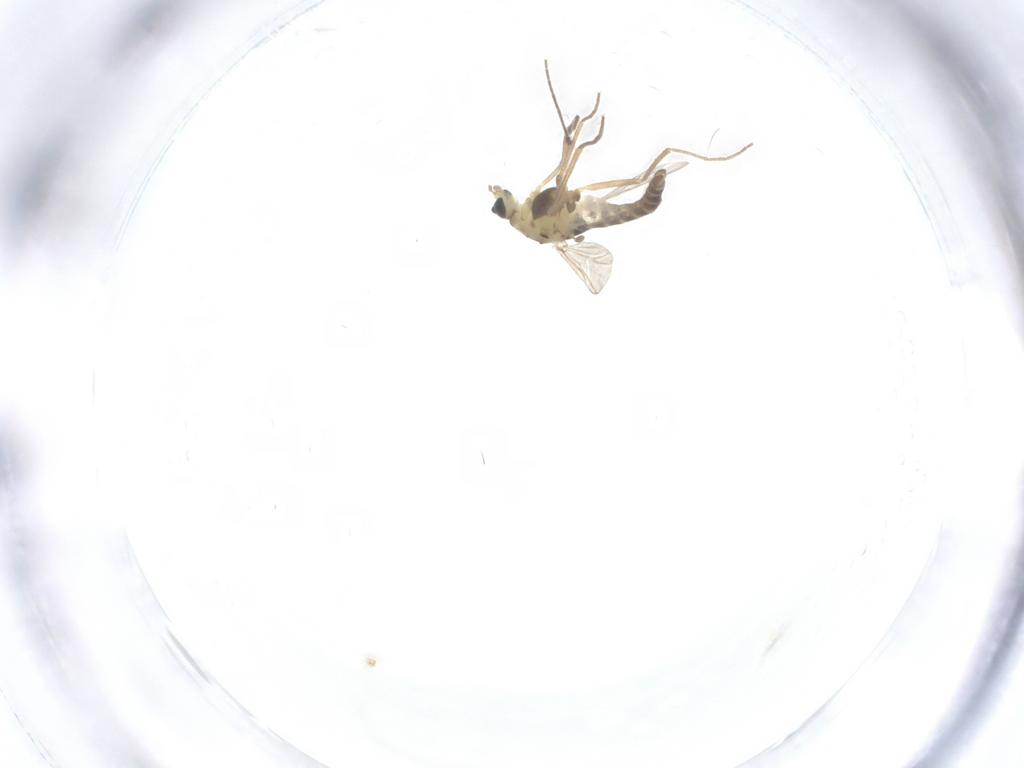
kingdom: Animalia
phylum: Arthropoda
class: Insecta
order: Diptera
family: Chironomidae
